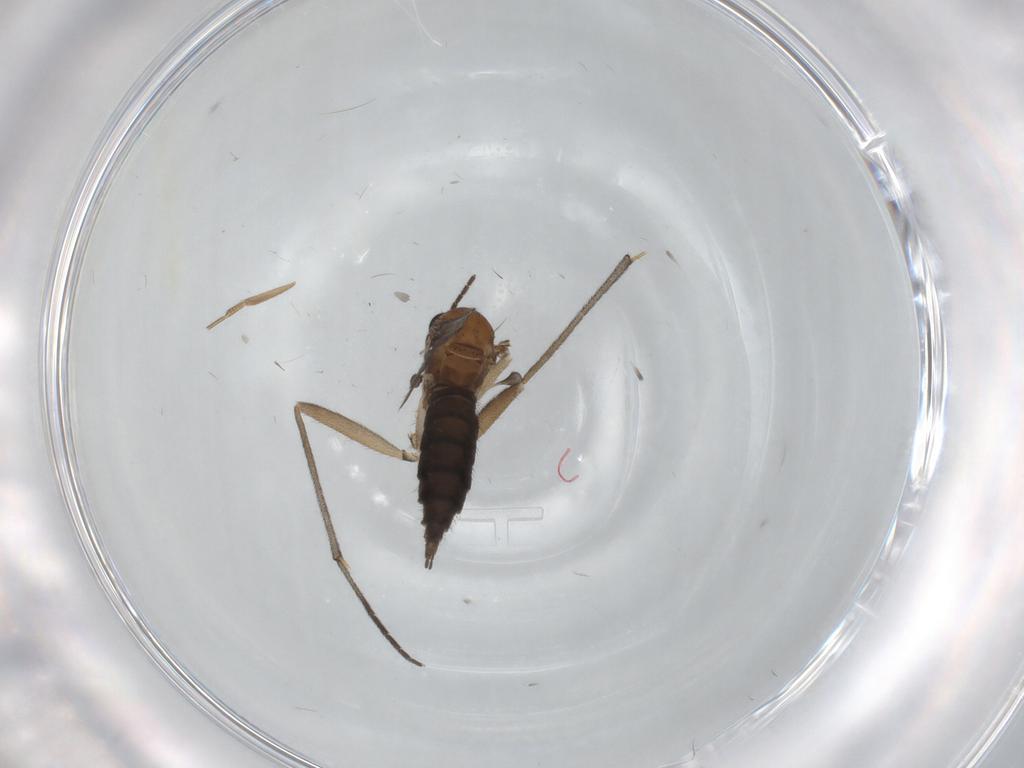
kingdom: Animalia
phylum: Arthropoda
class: Insecta
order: Diptera
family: Sciaridae
